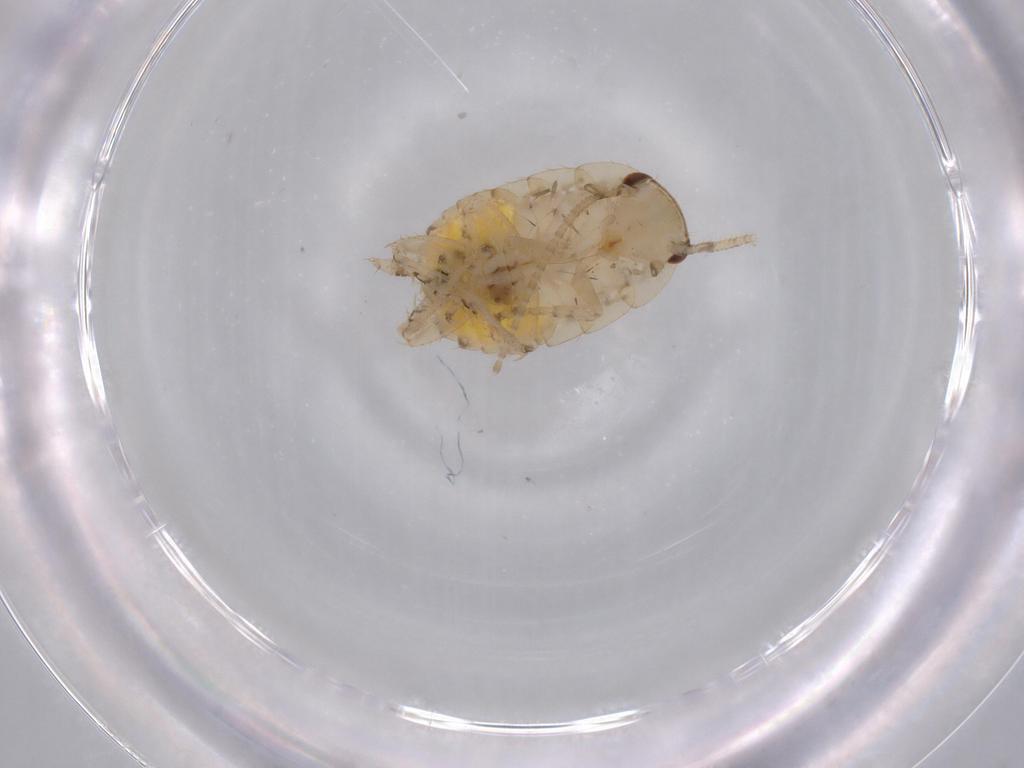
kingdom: Animalia
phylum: Arthropoda
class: Insecta
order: Blattodea
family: Ectobiidae
